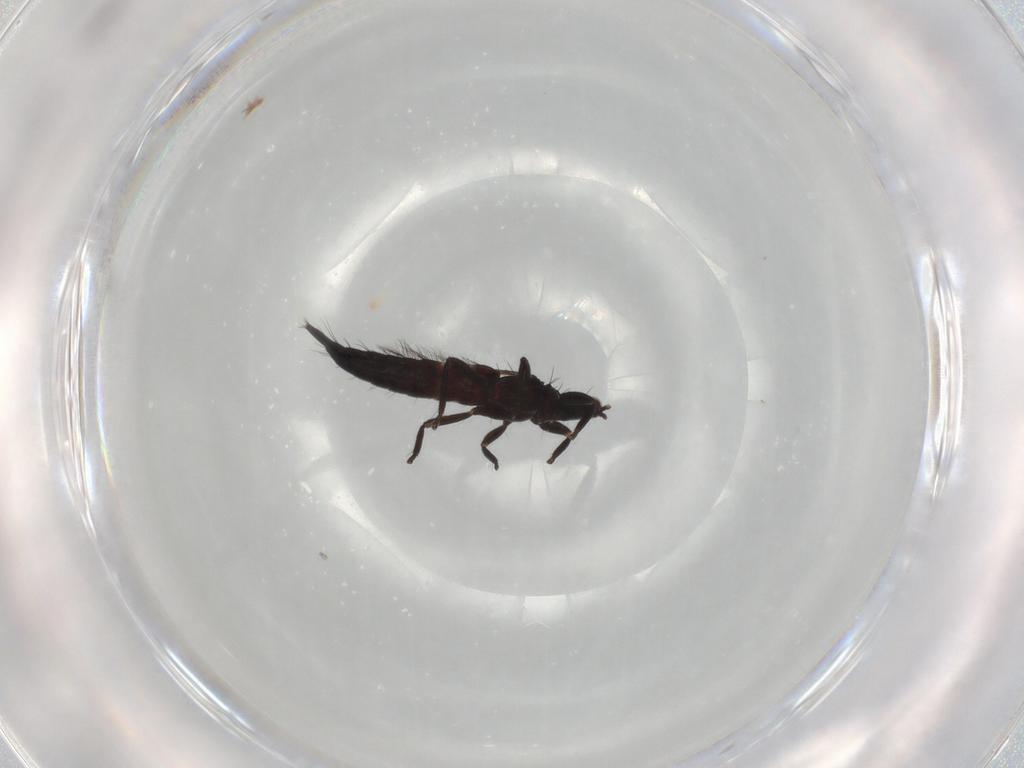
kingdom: Animalia
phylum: Arthropoda
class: Insecta
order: Thysanoptera
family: Phlaeothripidae
